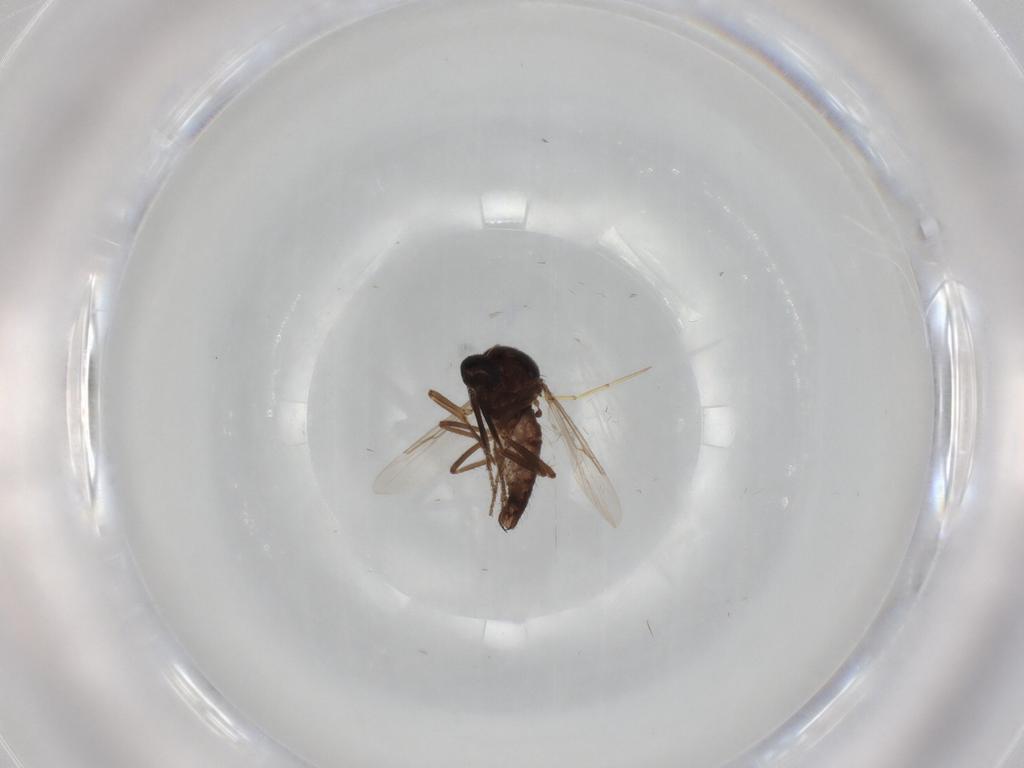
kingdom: Animalia
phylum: Arthropoda
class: Insecta
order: Diptera
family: Ceratopogonidae
